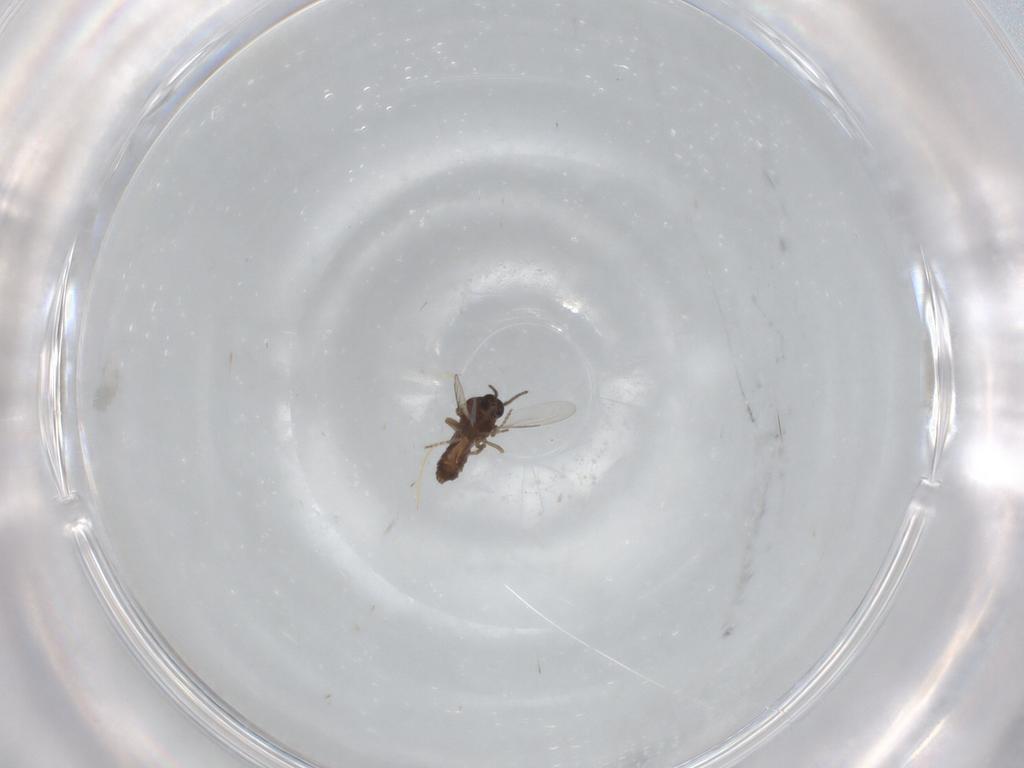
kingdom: Animalia
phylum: Arthropoda
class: Insecta
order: Diptera
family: Ceratopogonidae
